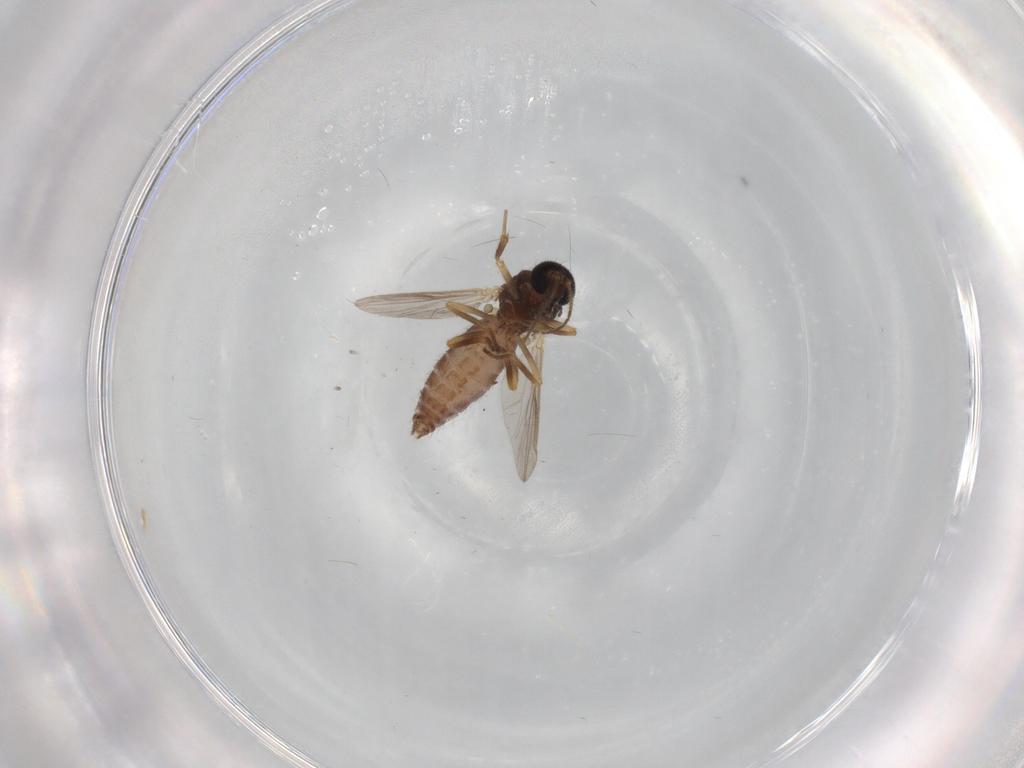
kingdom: Animalia
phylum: Arthropoda
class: Insecta
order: Diptera
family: Ceratopogonidae
